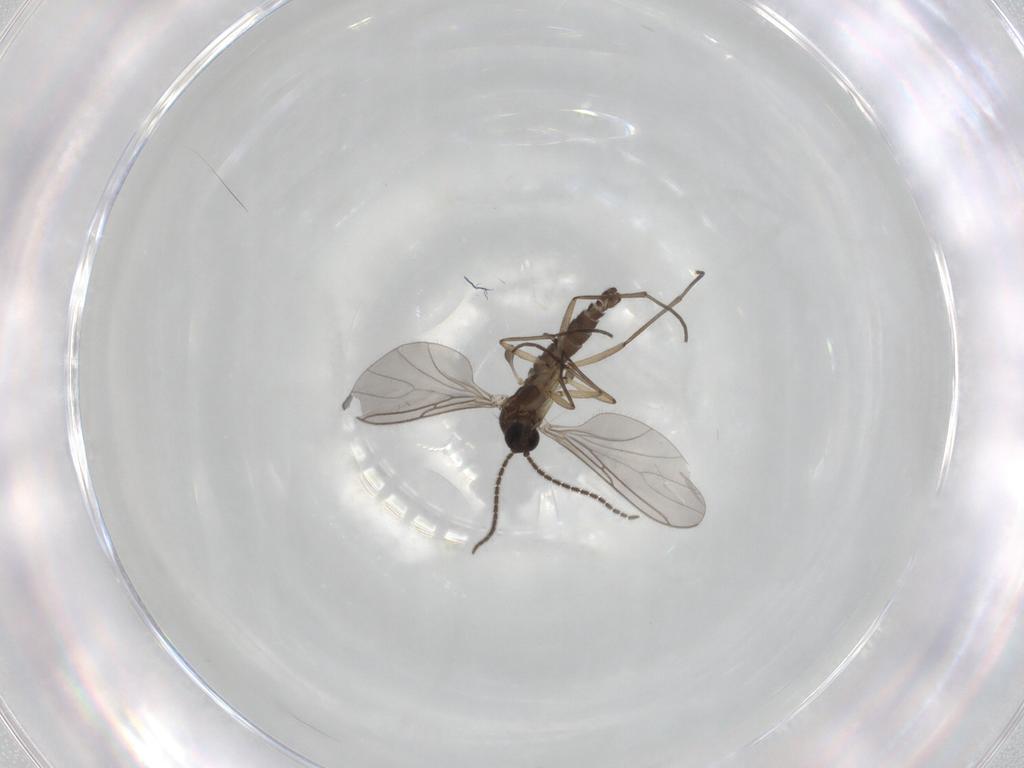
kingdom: Animalia
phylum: Arthropoda
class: Insecta
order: Diptera
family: Sciaridae
